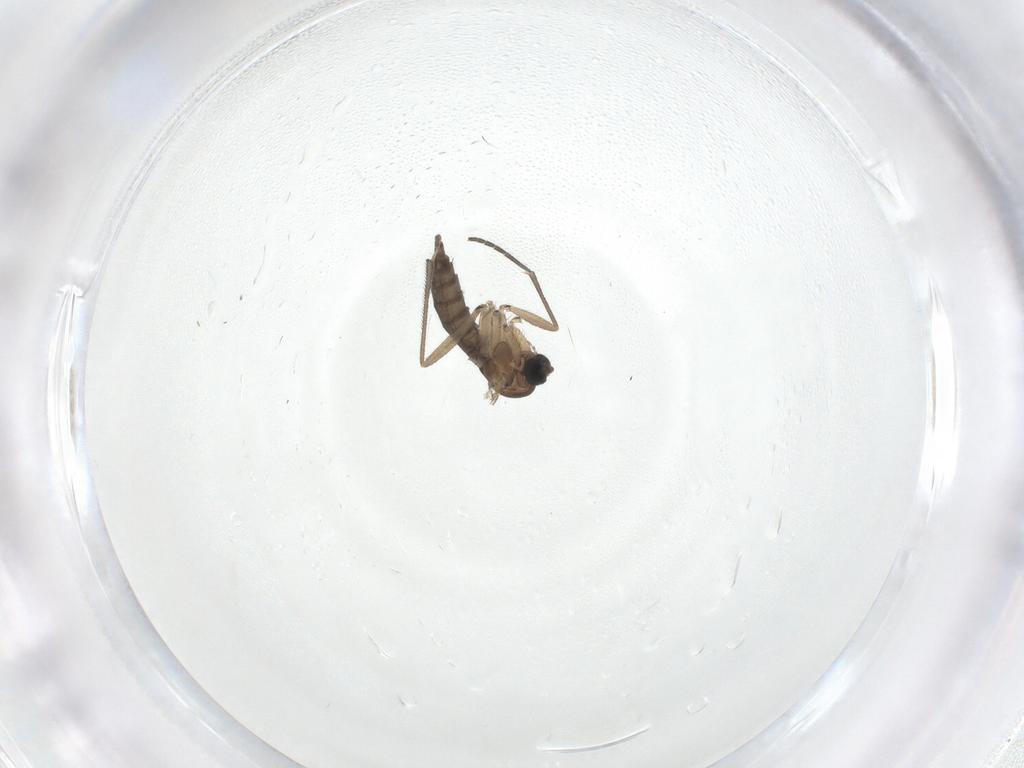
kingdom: Animalia
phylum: Arthropoda
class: Insecta
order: Diptera
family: Sciaridae
